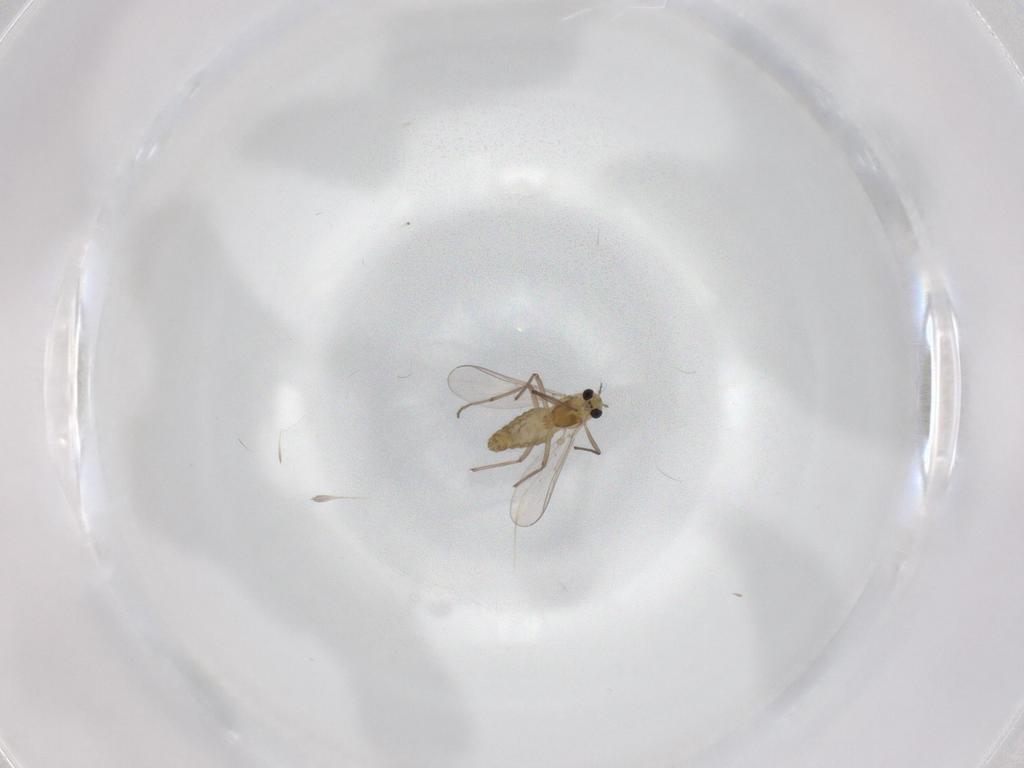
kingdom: Animalia
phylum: Arthropoda
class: Insecta
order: Diptera
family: Chironomidae
